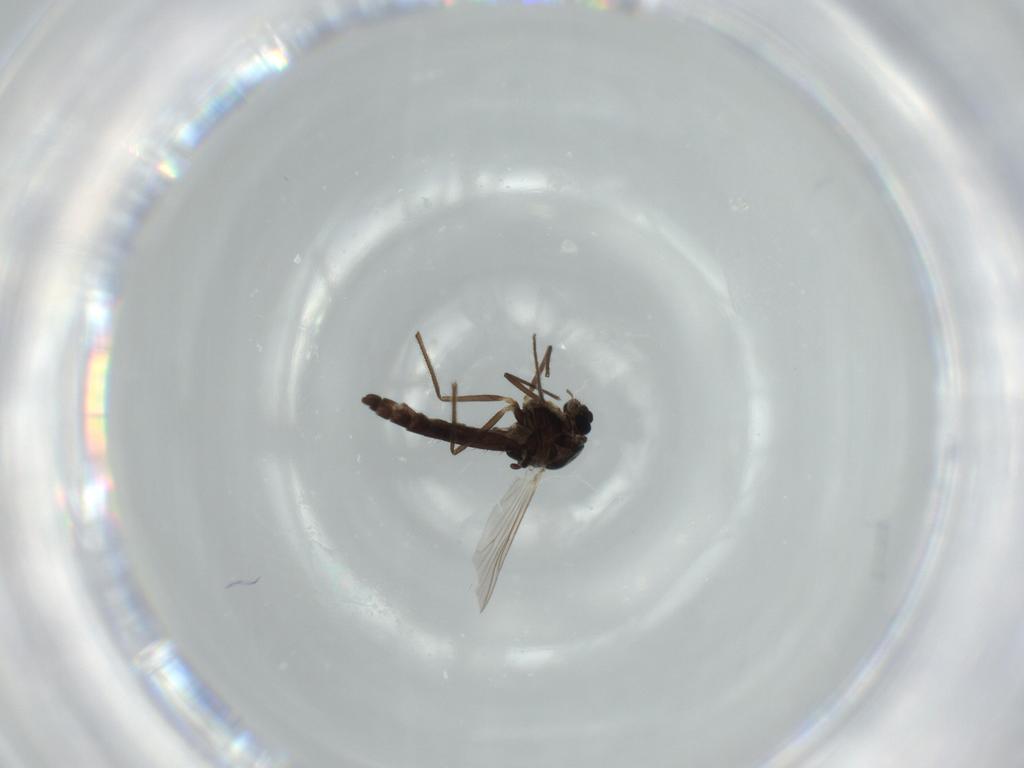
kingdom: Animalia
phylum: Arthropoda
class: Insecta
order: Diptera
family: Chironomidae
